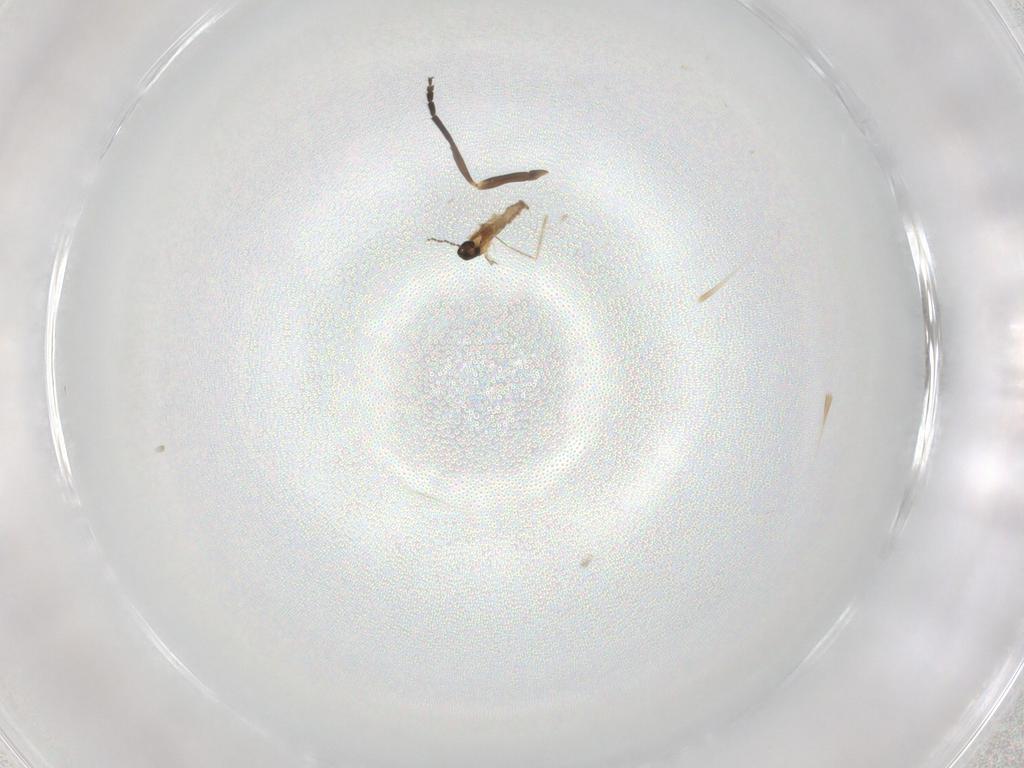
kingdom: Animalia
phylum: Arthropoda
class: Insecta
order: Diptera
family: Cecidomyiidae
